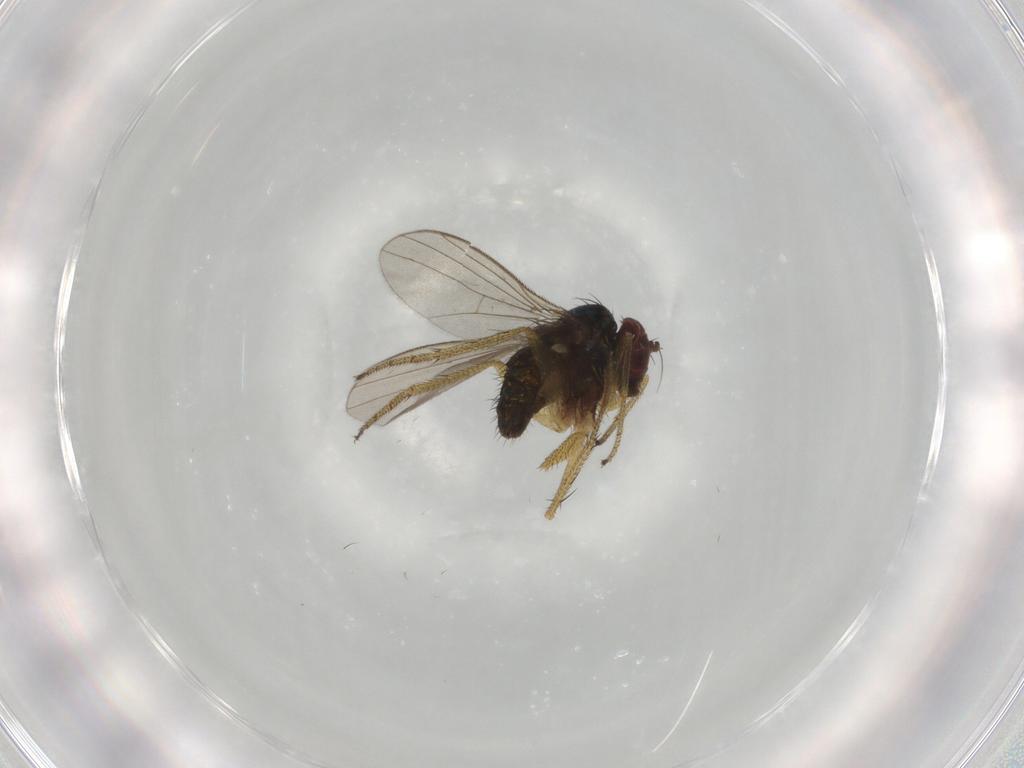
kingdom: Animalia
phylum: Arthropoda
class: Insecta
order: Diptera
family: Dolichopodidae
